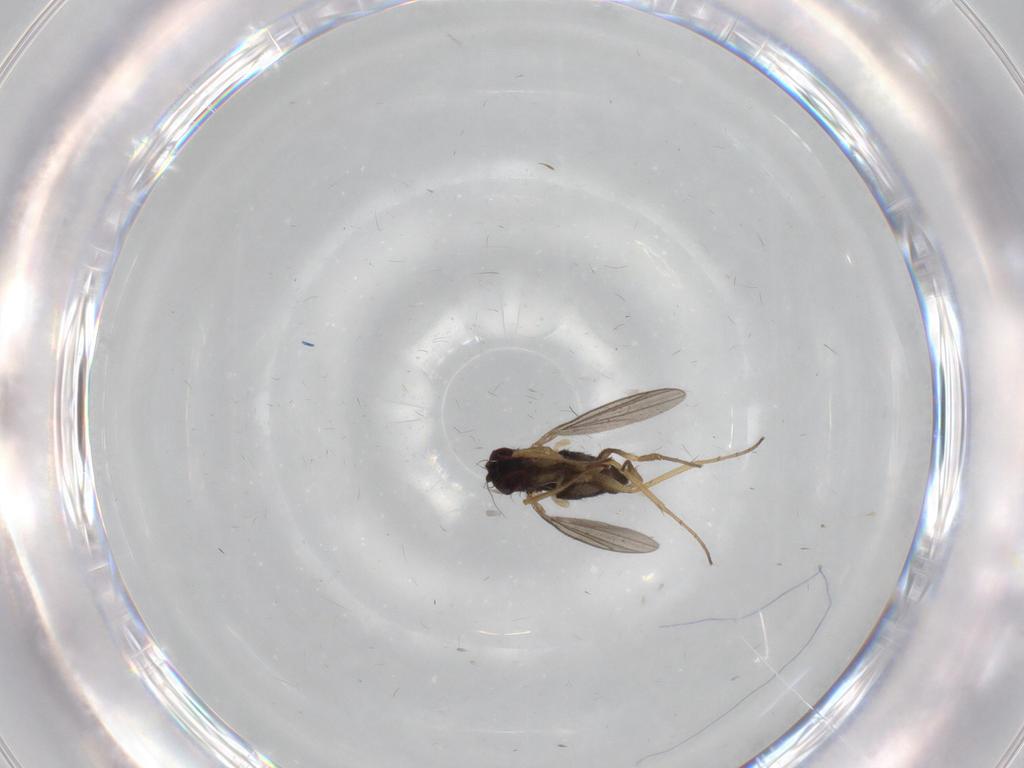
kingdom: Animalia
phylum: Arthropoda
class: Insecta
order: Diptera
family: Dolichopodidae
